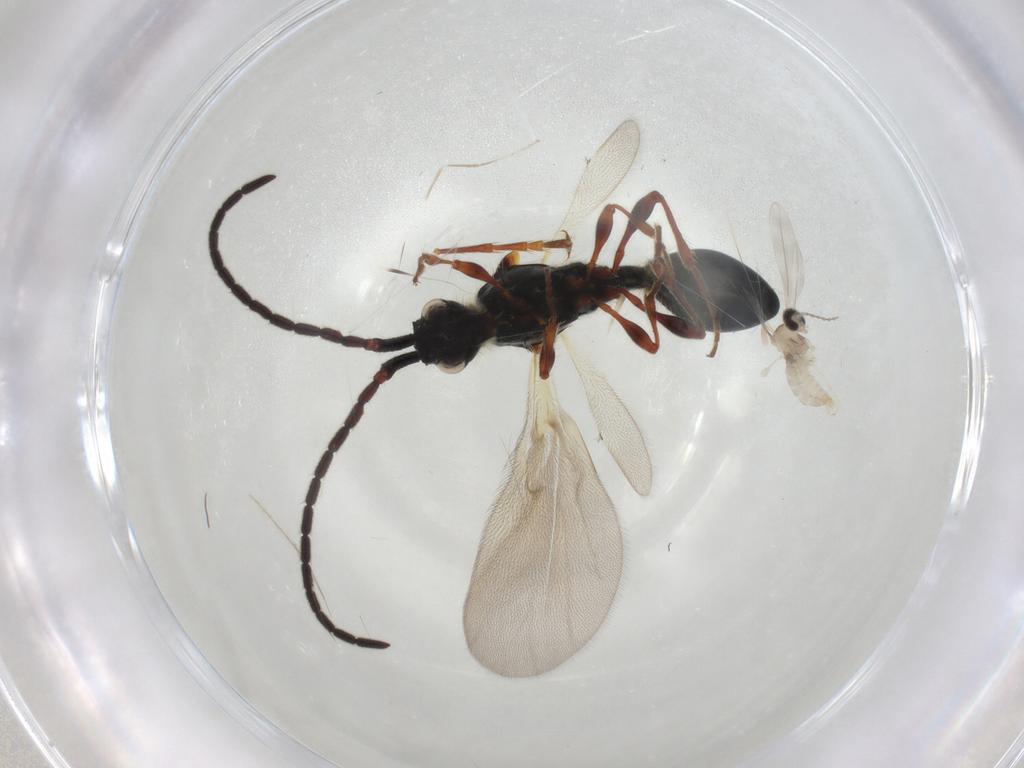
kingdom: Animalia
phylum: Arthropoda
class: Insecta
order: Hymenoptera
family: Diapriidae
